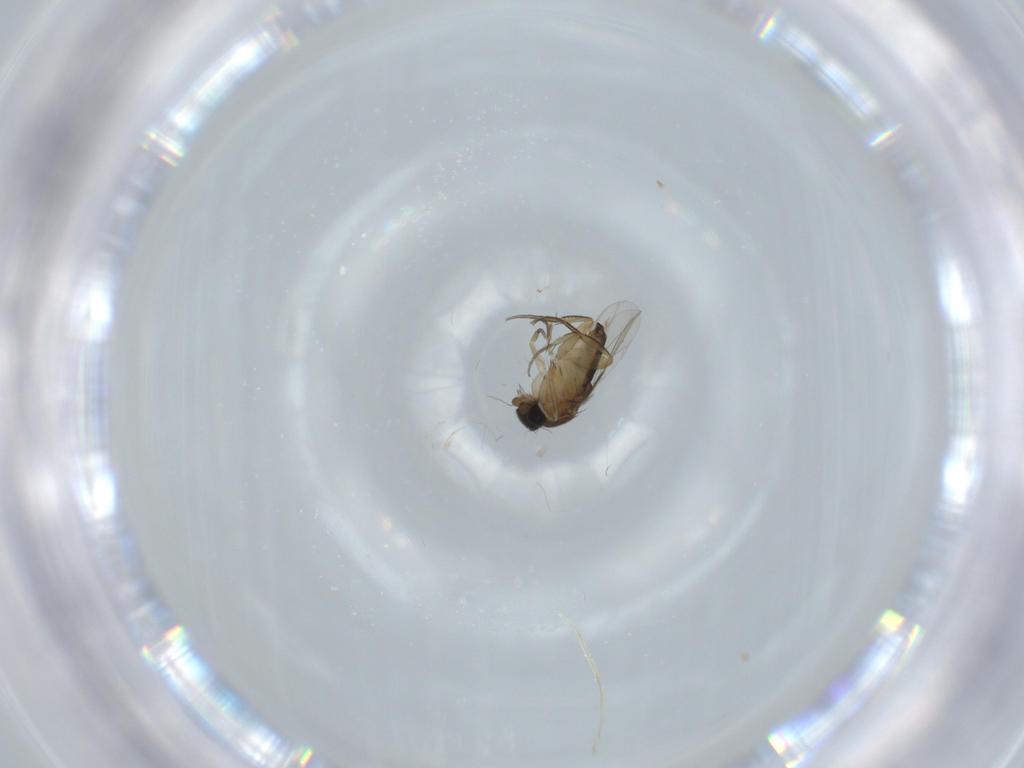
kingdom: Animalia
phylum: Arthropoda
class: Insecta
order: Diptera
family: Phoridae
